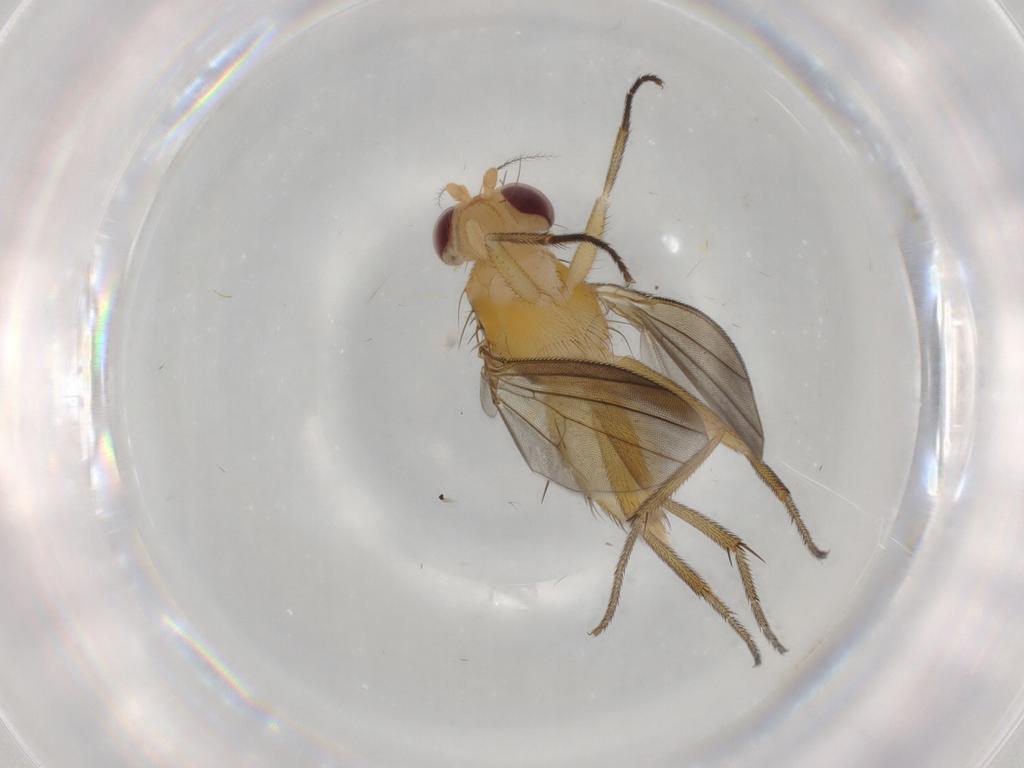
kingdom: Animalia
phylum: Arthropoda
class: Insecta
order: Diptera
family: Clusiidae
